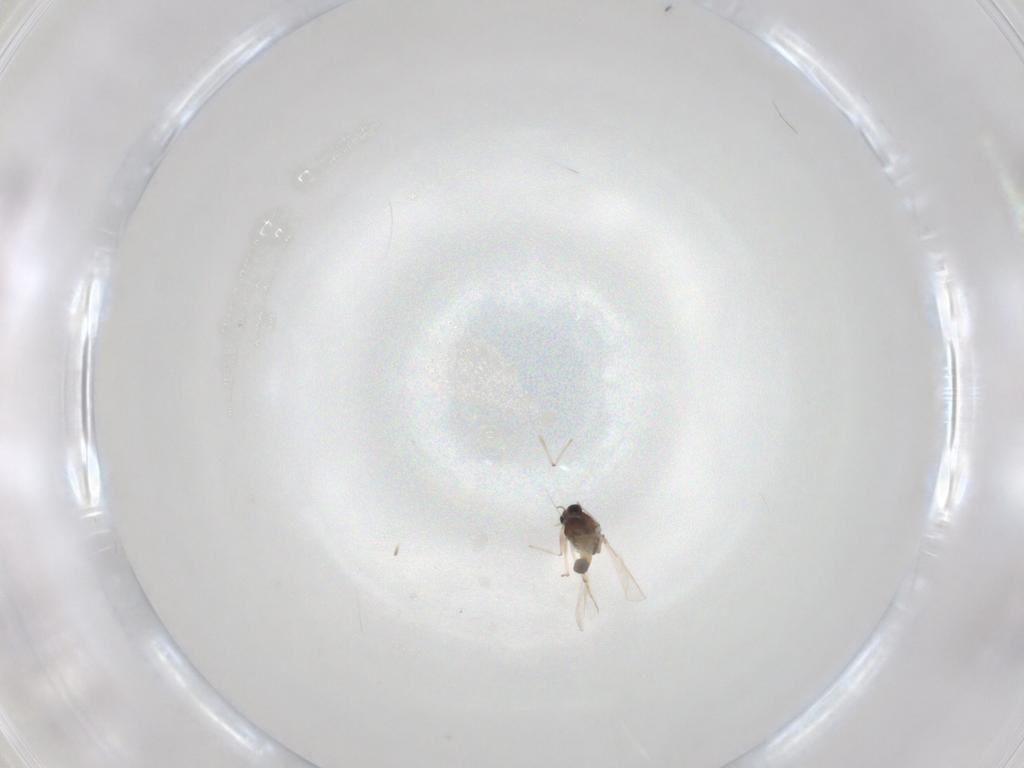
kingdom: Animalia
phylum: Arthropoda
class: Insecta
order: Diptera
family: Chironomidae
